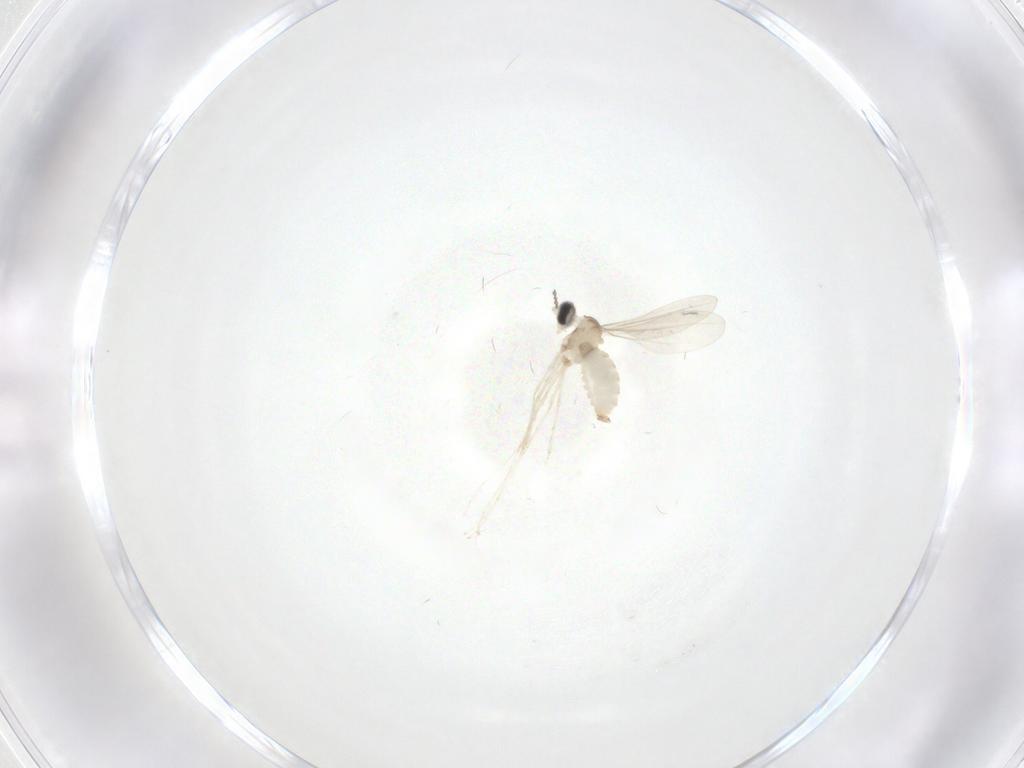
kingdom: Animalia
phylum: Arthropoda
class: Insecta
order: Diptera
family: Cecidomyiidae
